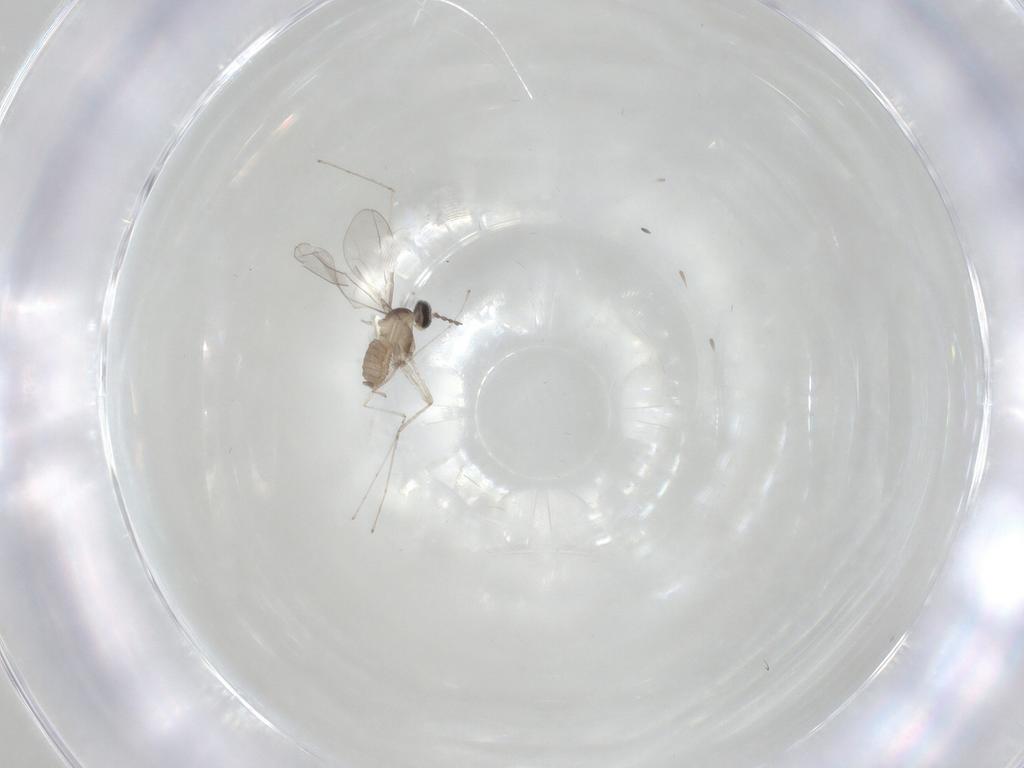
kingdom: Animalia
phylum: Arthropoda
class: Insecta
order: Diptera
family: Cecidomyiidae
